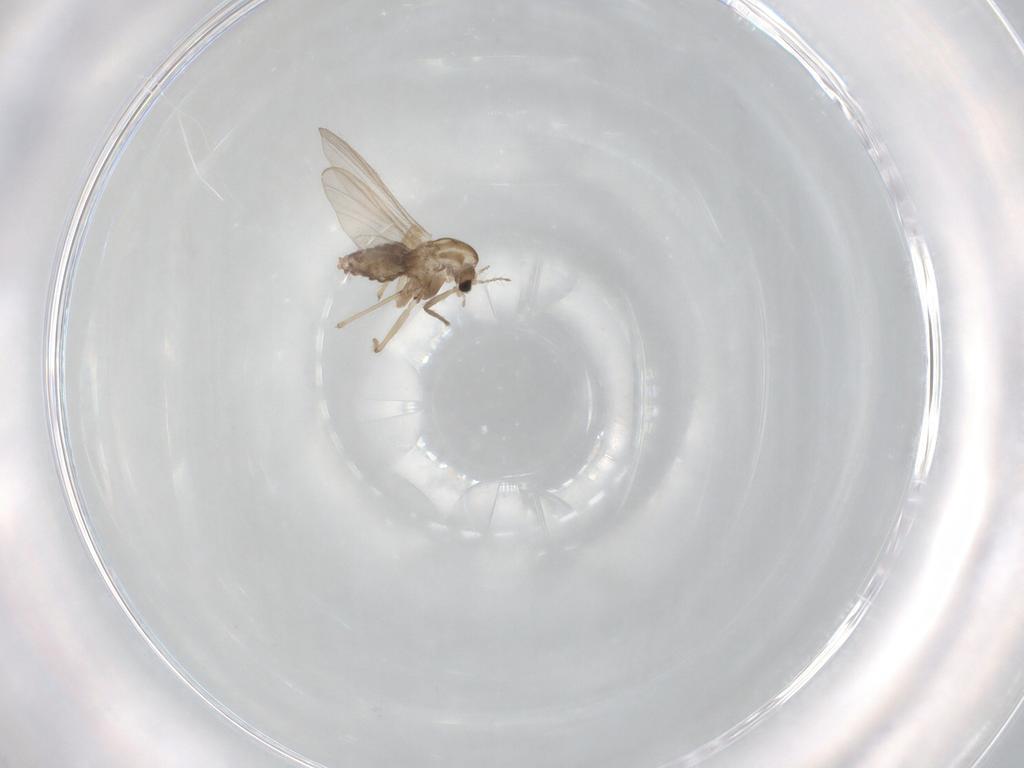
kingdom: Animalia
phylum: Arthropoda
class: Insecta
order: Diptera
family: Chironomidae
